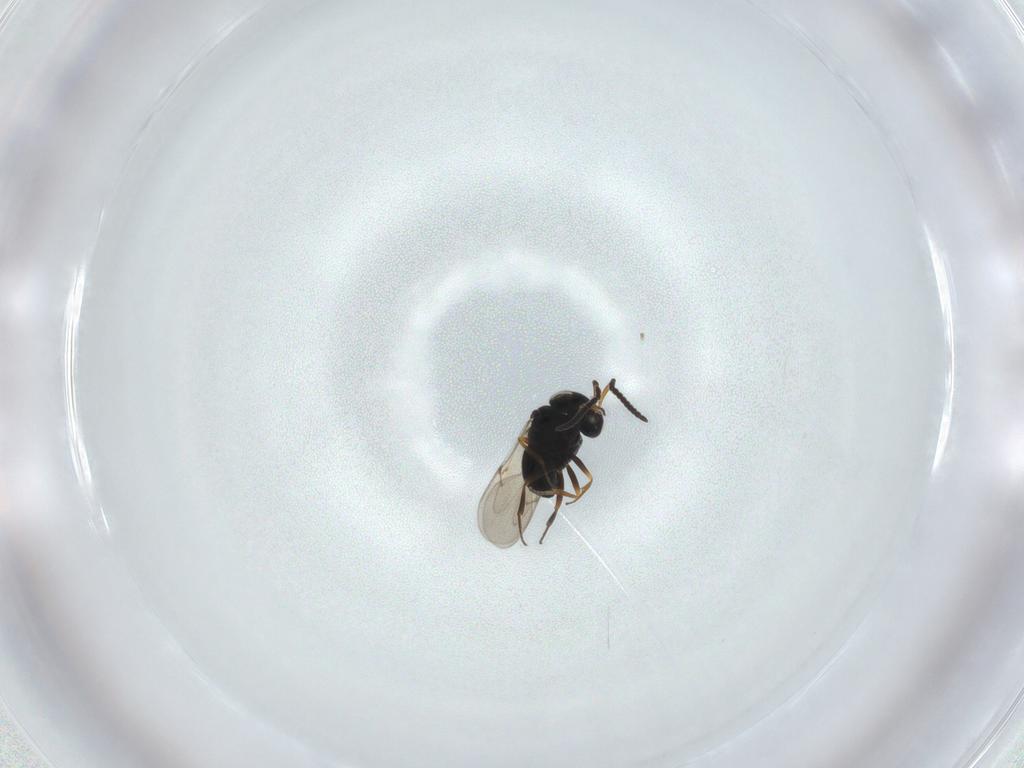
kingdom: Animalia
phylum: Arthropoda
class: Insecta
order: Hymenoptera
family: Scelionidae
